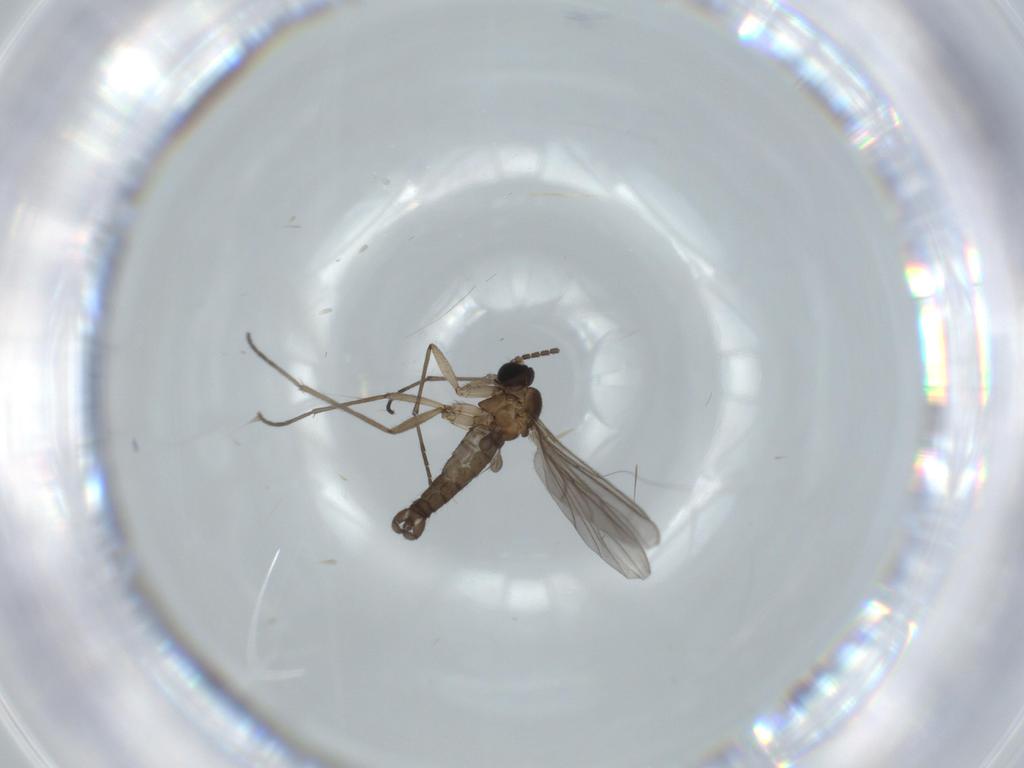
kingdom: Animalia
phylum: Arthropoda
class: Insecta
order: Diptera
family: Sciaridae
